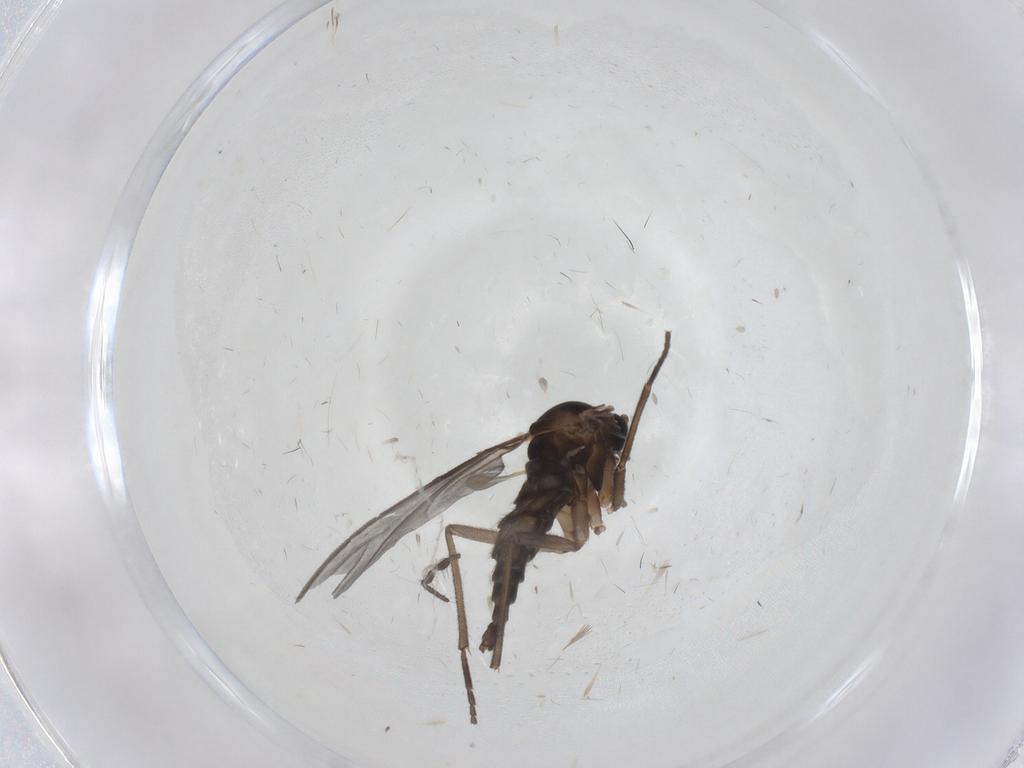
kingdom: Animalia
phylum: Arthropoda
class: Insecta
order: Diptera
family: Sciaridae
